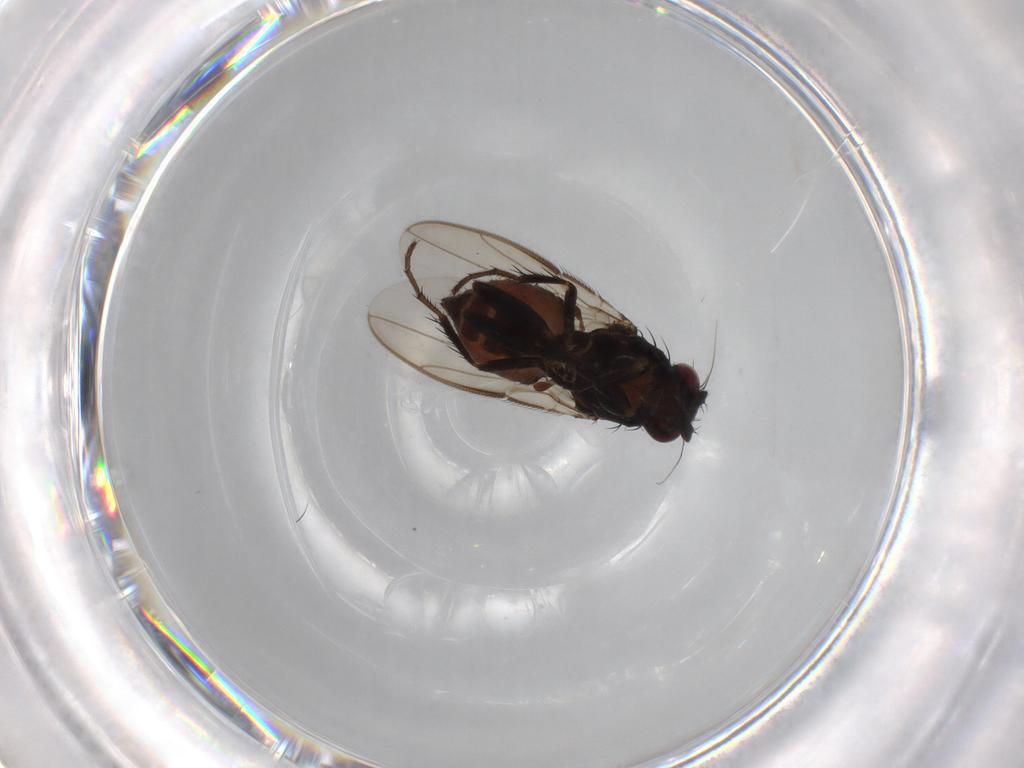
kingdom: Animalia
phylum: Arthropoda
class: Insecta
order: Diptera
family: Sphaeroceridae
